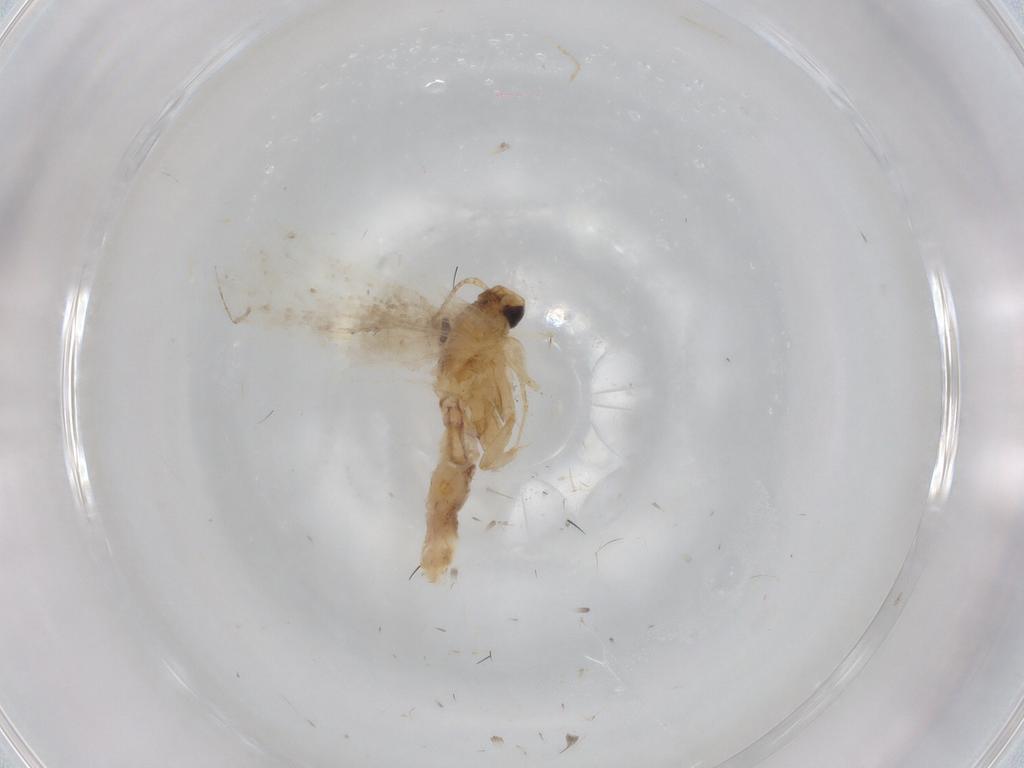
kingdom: Animalia
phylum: Arthropoda
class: Insecta
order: Lepidoptera
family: Gelechiidae
